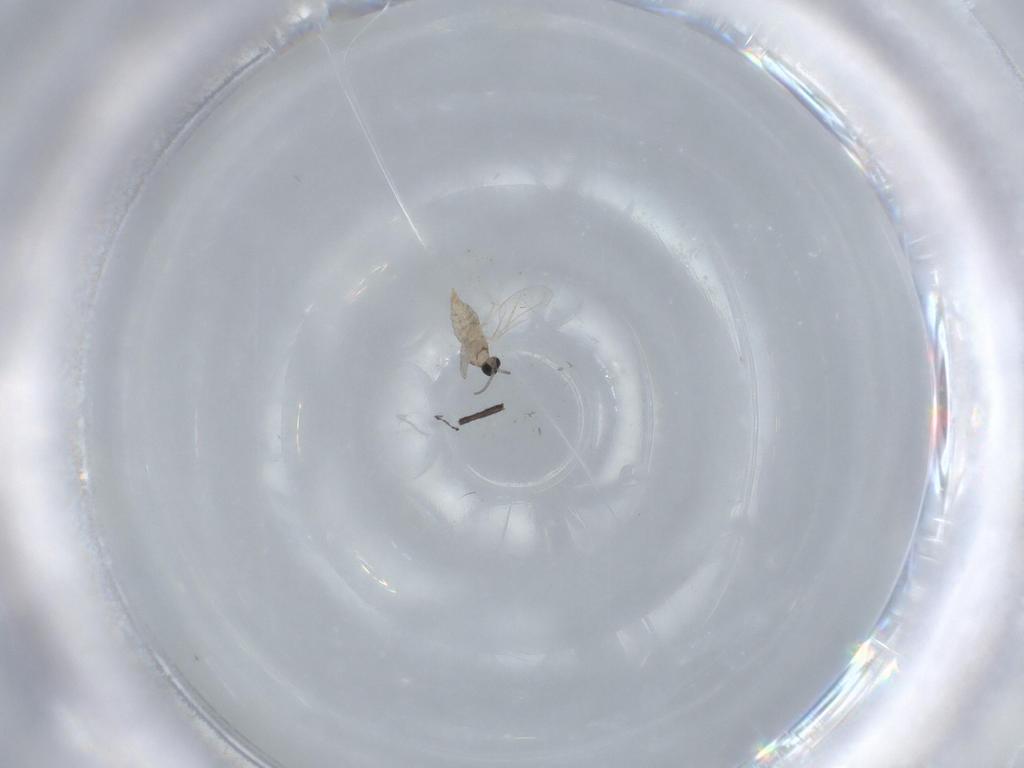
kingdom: Animalia
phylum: Arthropoda
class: Insecta
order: Diptera
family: Cecidomyiidae
